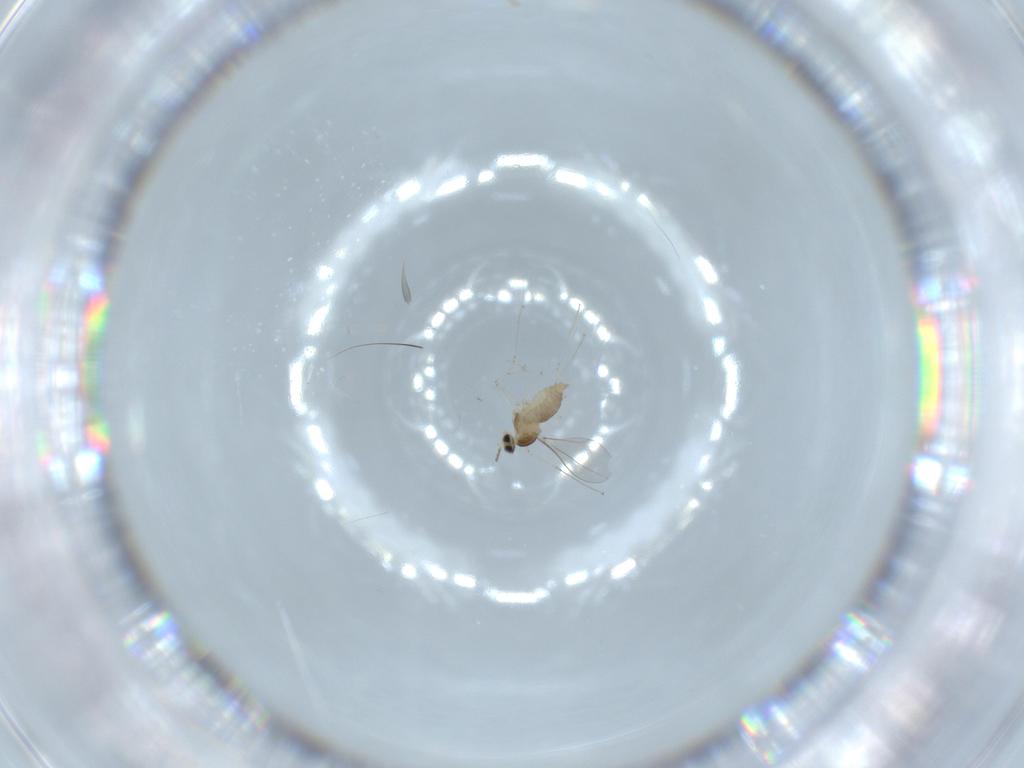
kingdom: Animalia
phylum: Arthropoda
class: Insecta
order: Diptera
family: Cecidomyiidae
